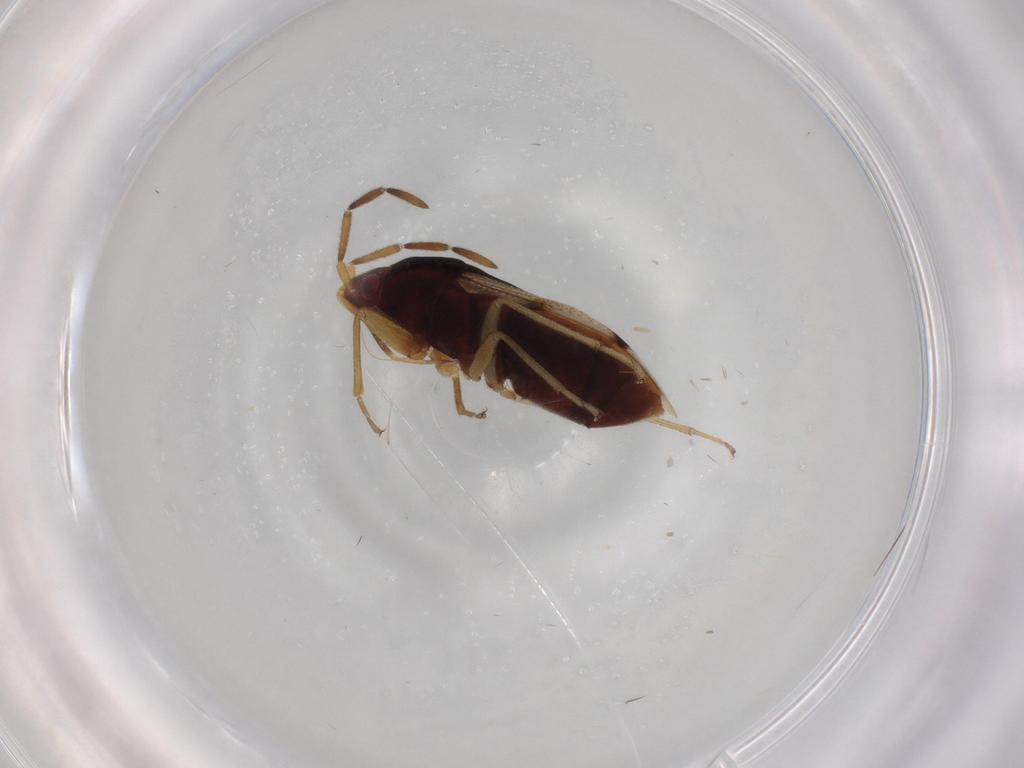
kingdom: Animalia
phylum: Arthropoda
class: Insecta
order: Hemiptera
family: Rhyparochromidae
